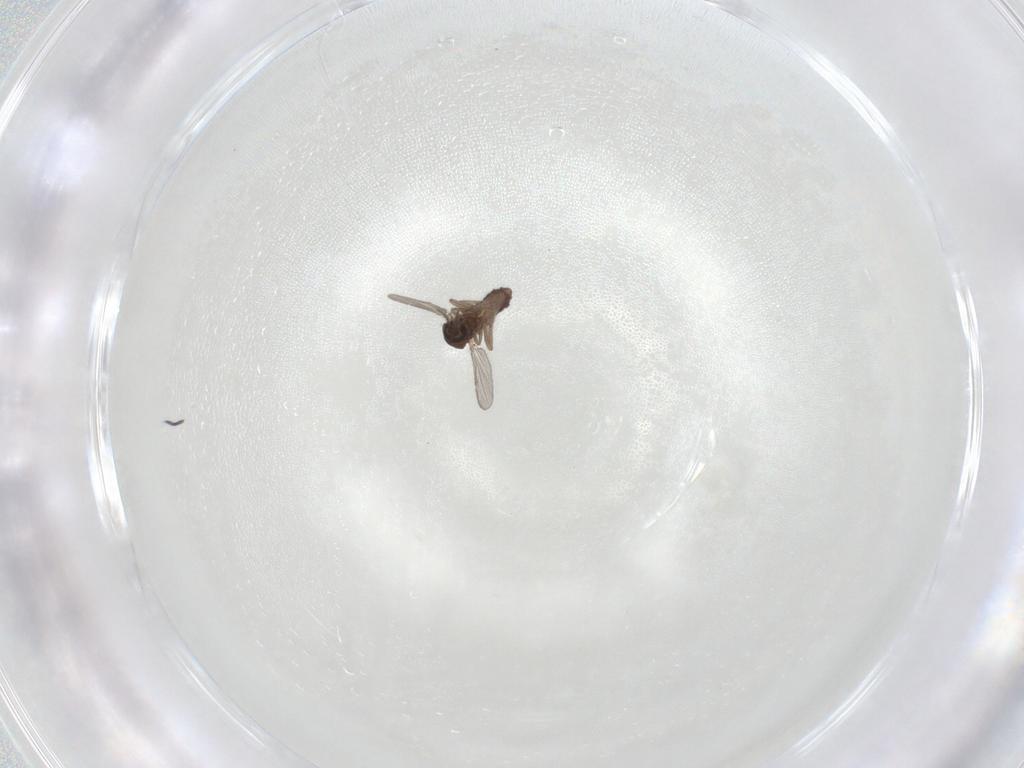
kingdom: Animalia
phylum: Arthropoda
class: Insecta
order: Diptera
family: Ceratopogonidae
